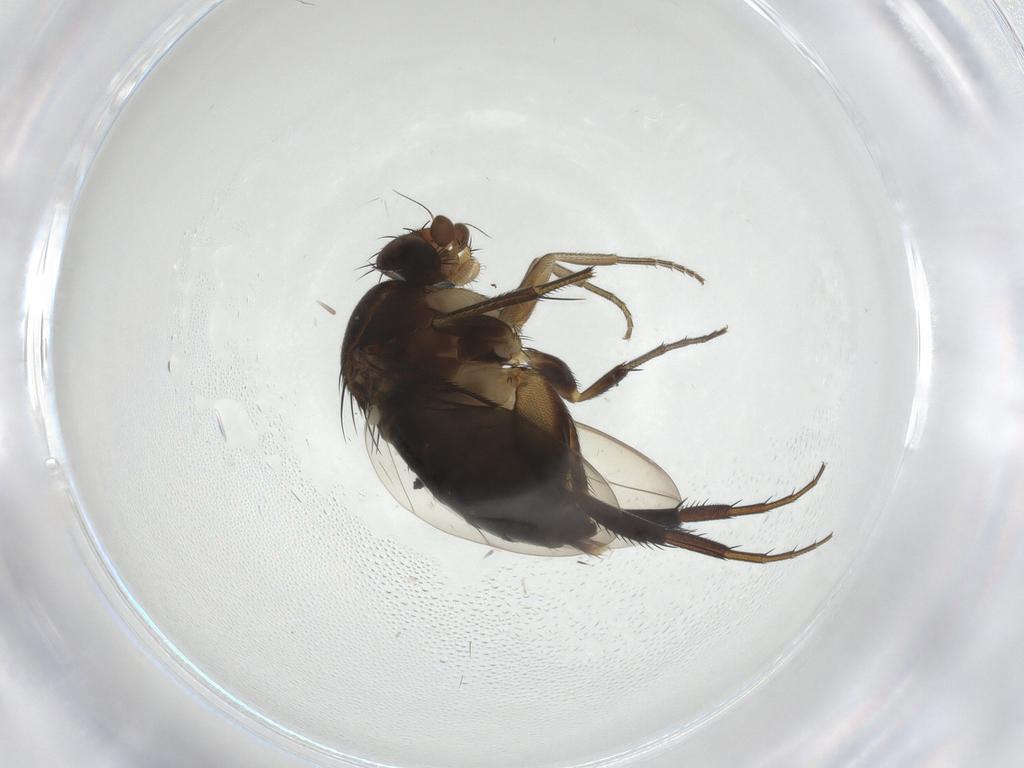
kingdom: Animalia
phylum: Arthropoda
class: Insecta
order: Diptera
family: Phoridae
